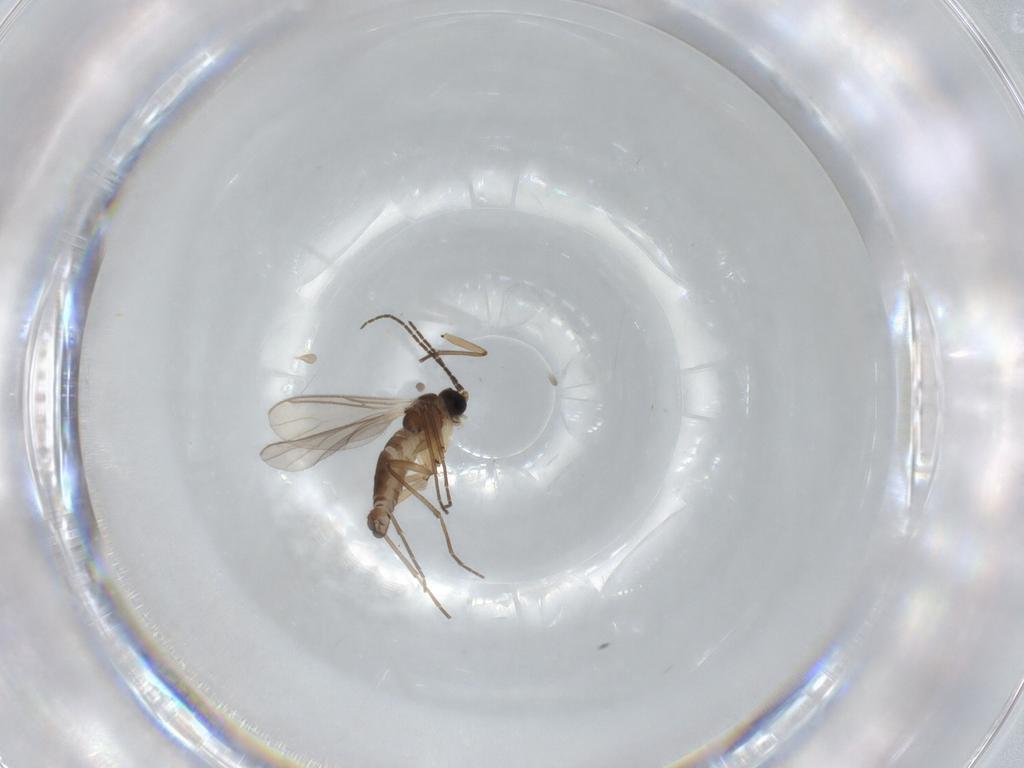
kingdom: Animalia
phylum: Arthropoda
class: Insecta
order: Diptera
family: Sciaridae
